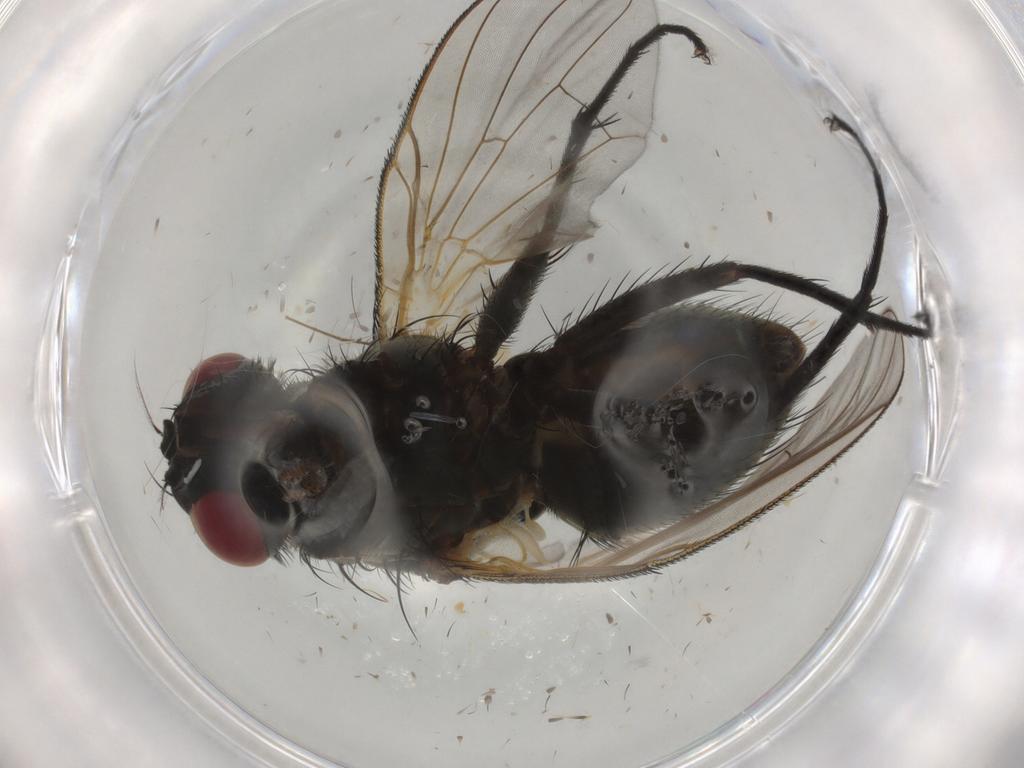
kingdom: Animalia
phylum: Arthropoda
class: Insecta
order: Diptera
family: Muscidae
